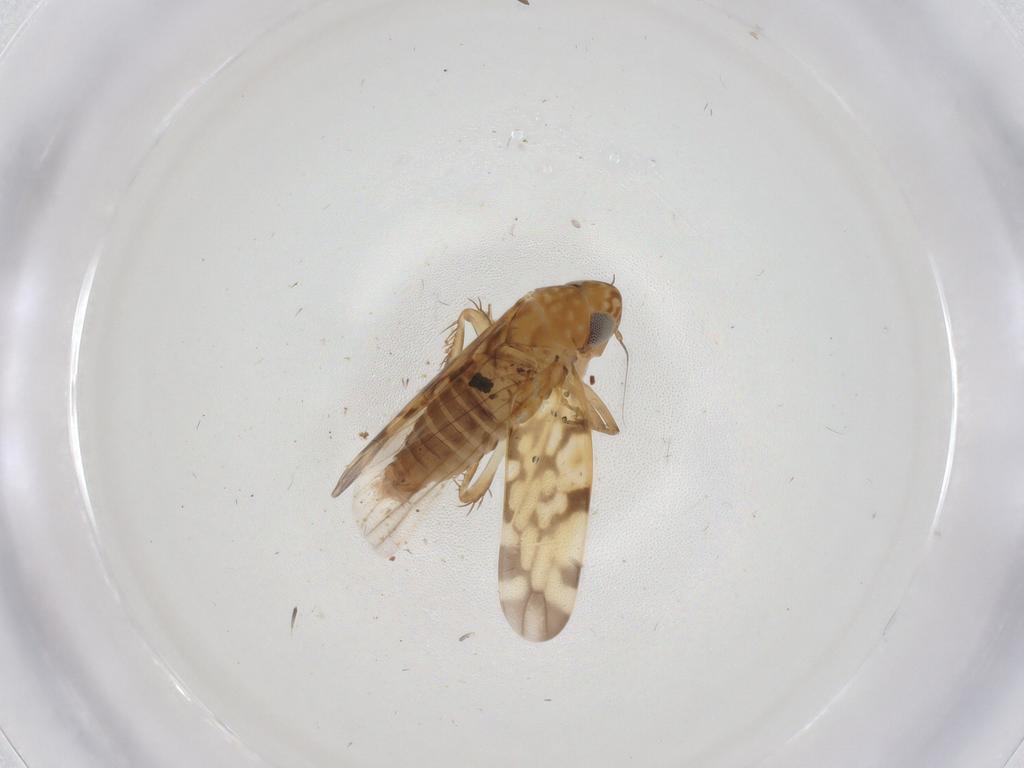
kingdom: Animalia
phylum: Arthropoda
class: Insecta
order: Hemiptera
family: Cicadellidae
